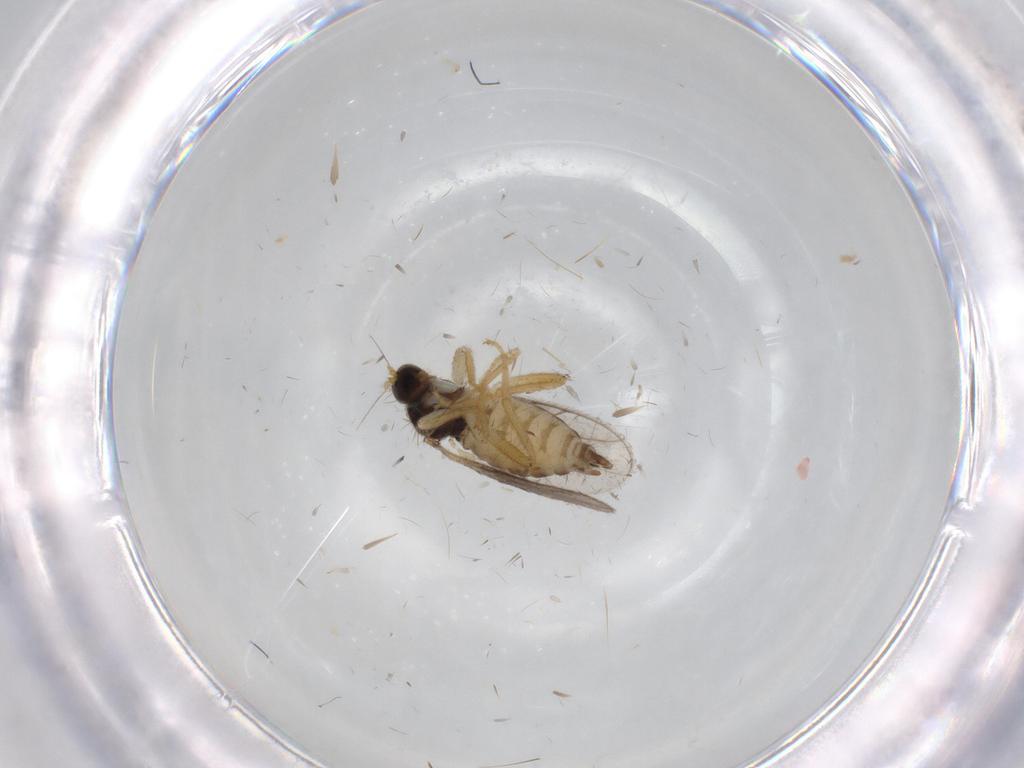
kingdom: Animalia
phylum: Arthropoda
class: Insecta
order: Diptera
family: Hybotidae
